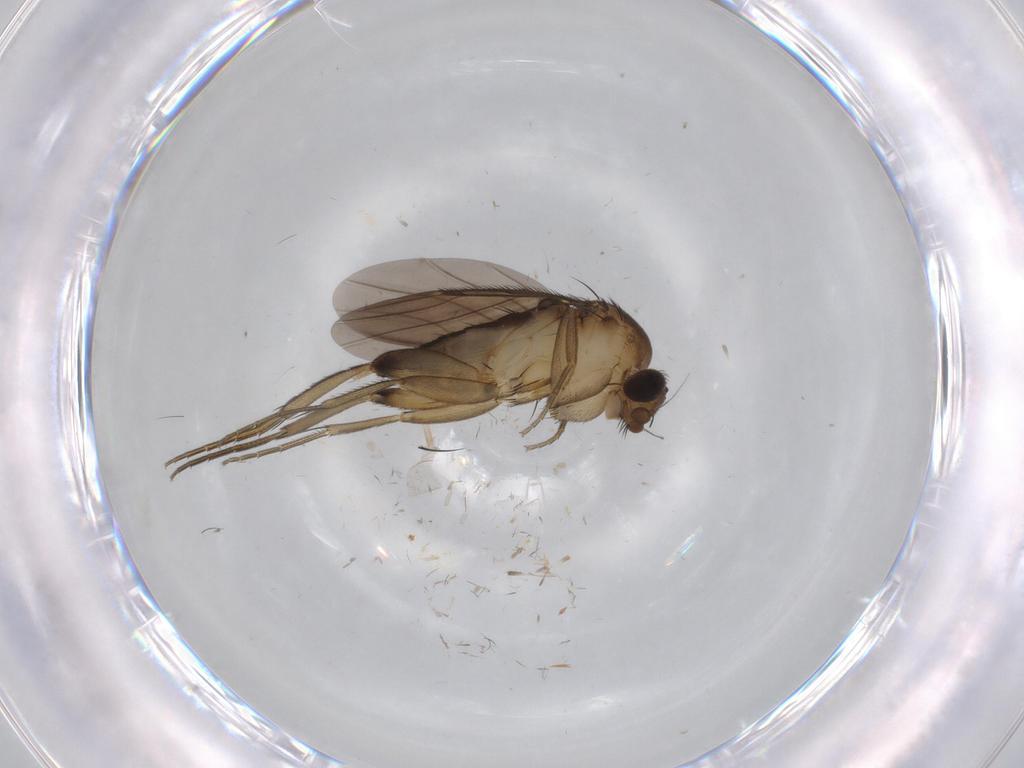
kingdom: Animalia
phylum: Arthropoda
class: Insecta
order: Diptera
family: Phoridae
